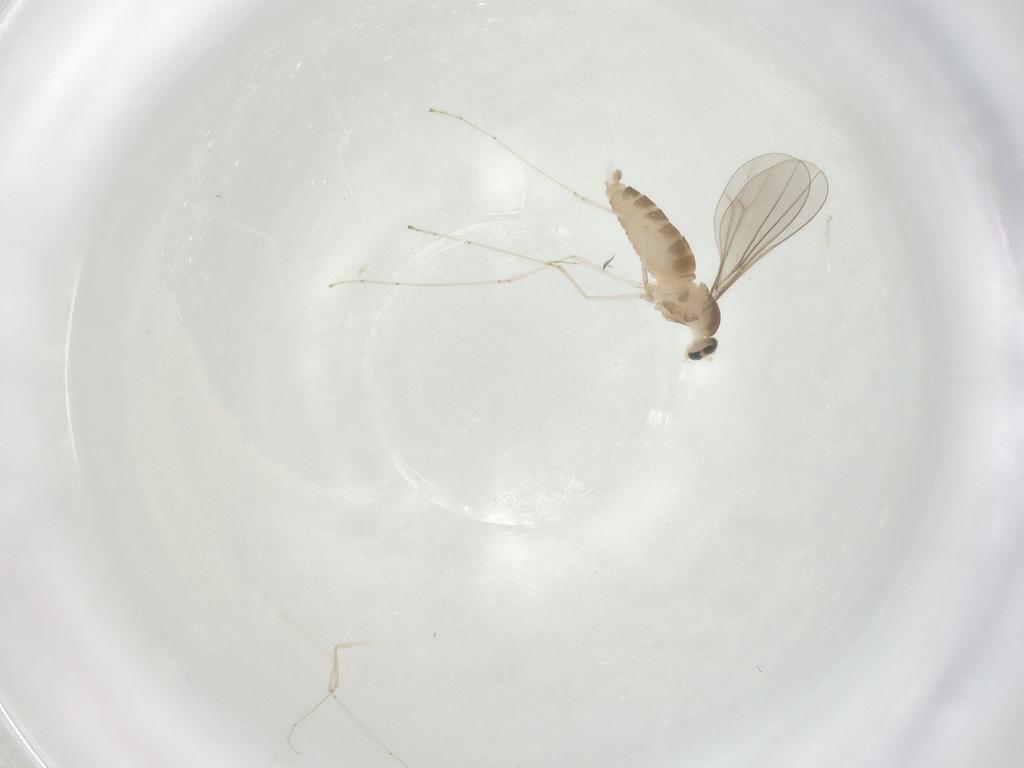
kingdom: Animalia
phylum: Arthropoda
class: Insecta
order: Diptera
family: Cecidomyiidae
